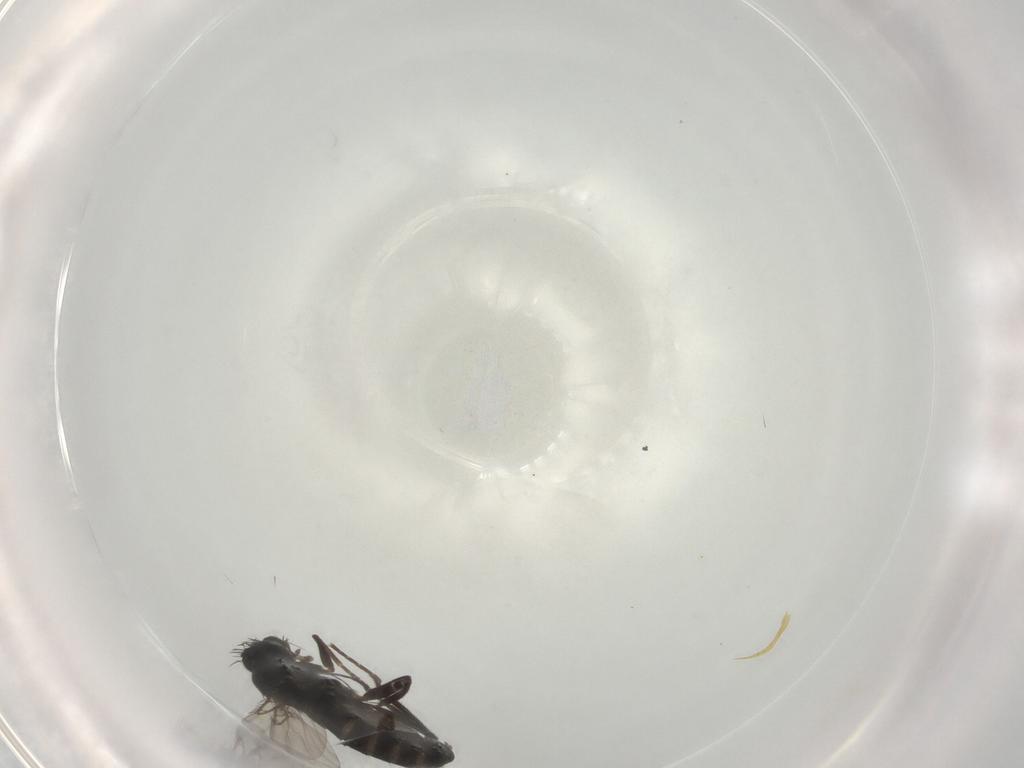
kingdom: Animalia
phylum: Arthropoda
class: Insecta
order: Diptera
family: Phoridae
